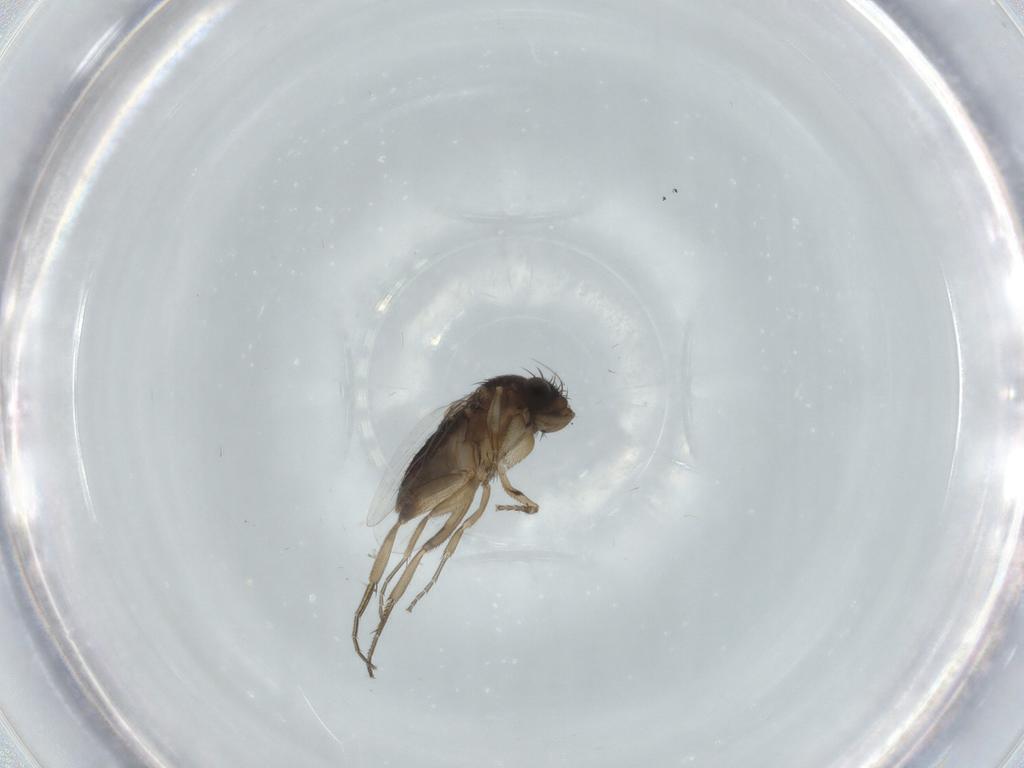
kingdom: Animalia
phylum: Arthropoda
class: Insecta
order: Diptera
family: Phoridae
